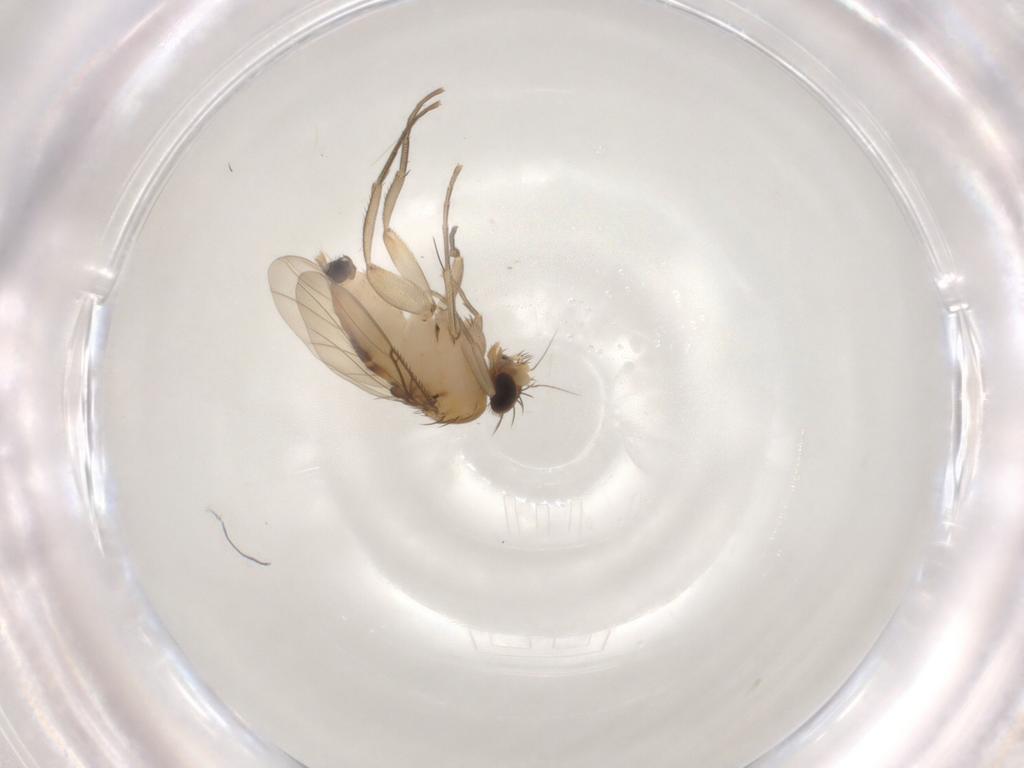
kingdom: Animalia
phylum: Arthropoda
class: Insecta
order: Diptera
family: Phoridae
